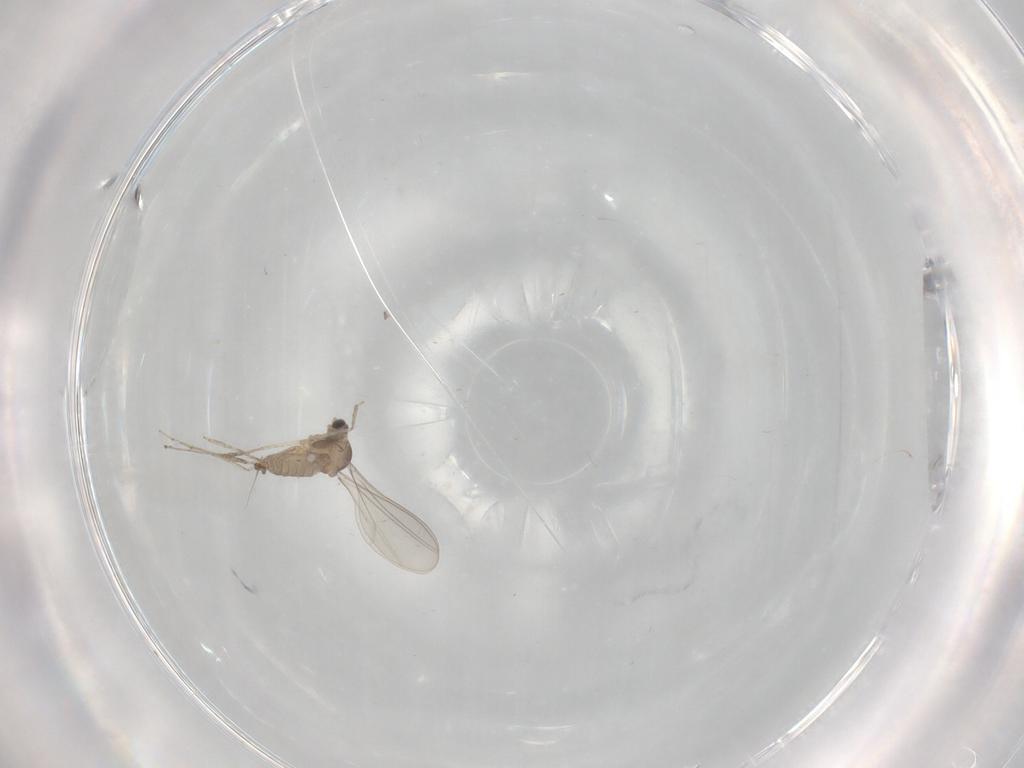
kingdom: Animalia
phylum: Arthropoda
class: Insecta
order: Diptera
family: Cecidomyiidae
